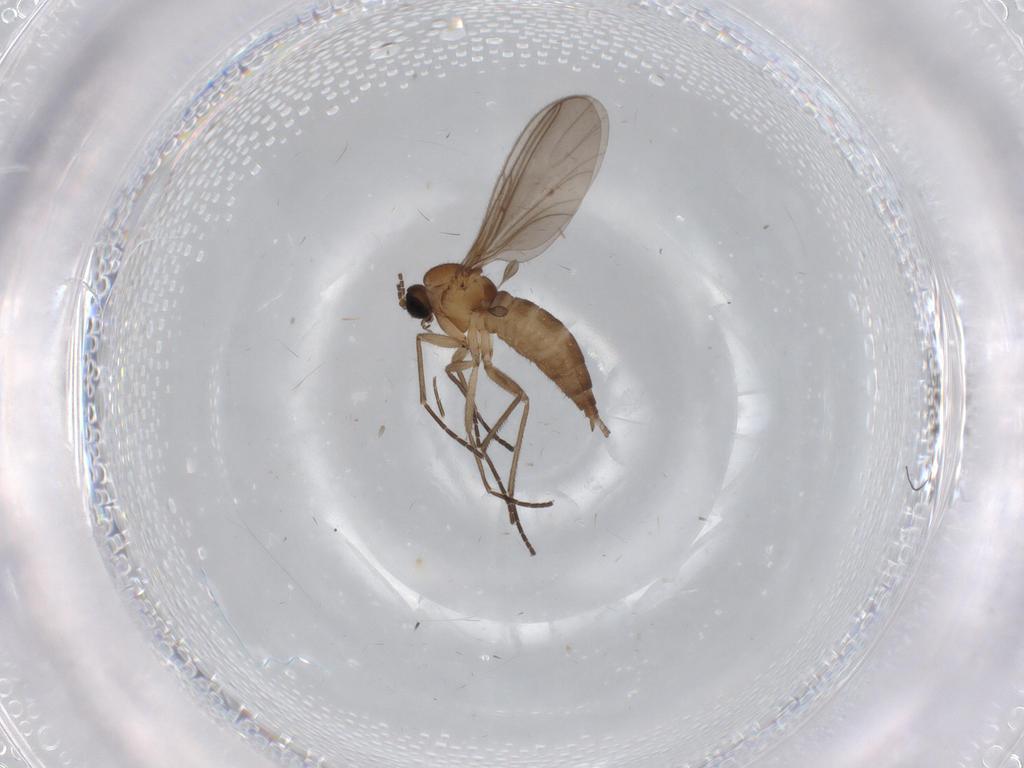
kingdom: Animalia
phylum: Arthropoda
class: Insecta
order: Diptera
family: Sciaridae
